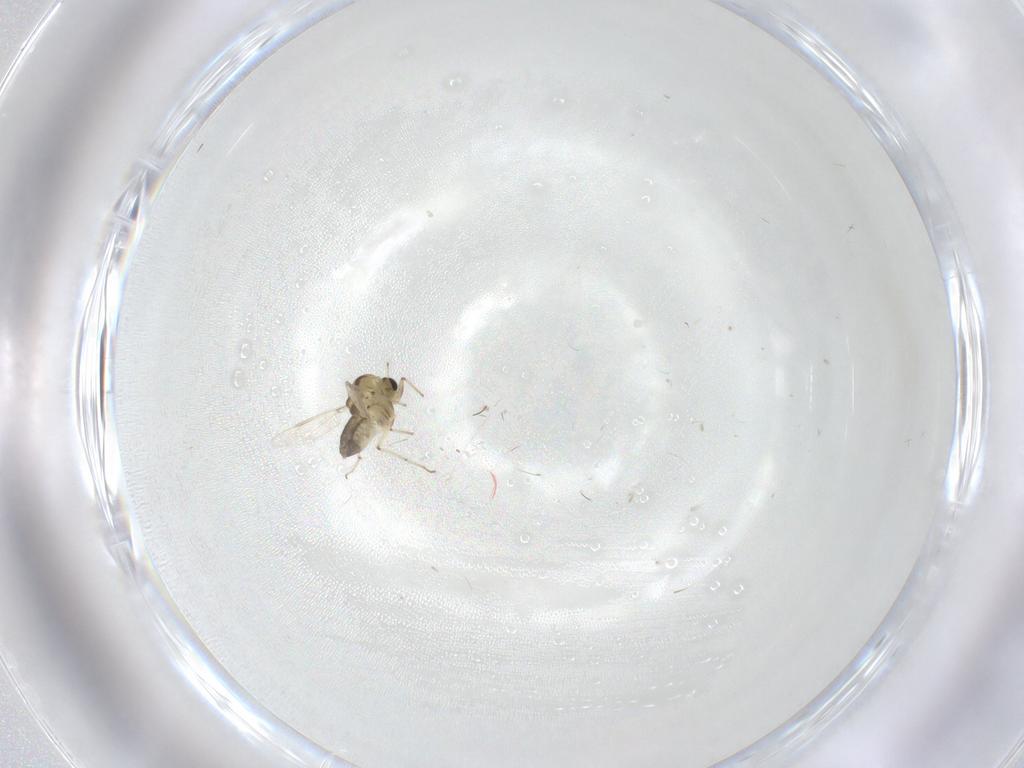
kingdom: Animalia
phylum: Arthropoda
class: Insecta
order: Diptera
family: Chironomidae
